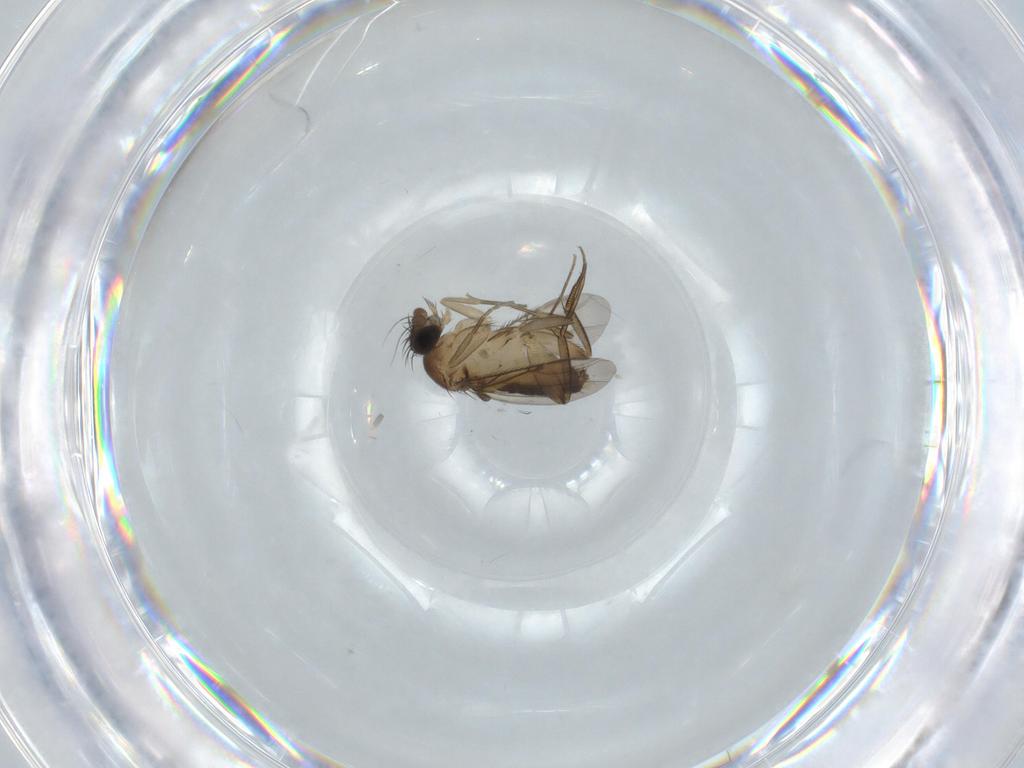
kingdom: Animalia
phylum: Arthropoda
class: Insecta
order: Diptera
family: Phoridae
